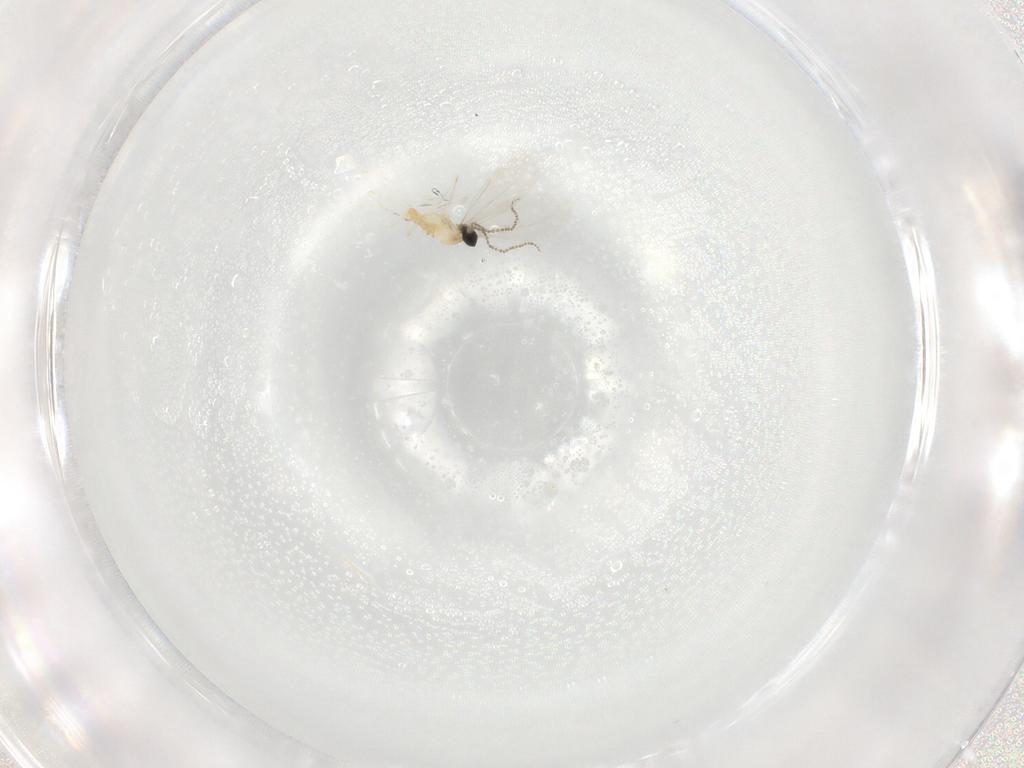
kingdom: Animalia
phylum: Arthropoda
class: Insecta
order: Diptera
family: Cecidomyiidae
